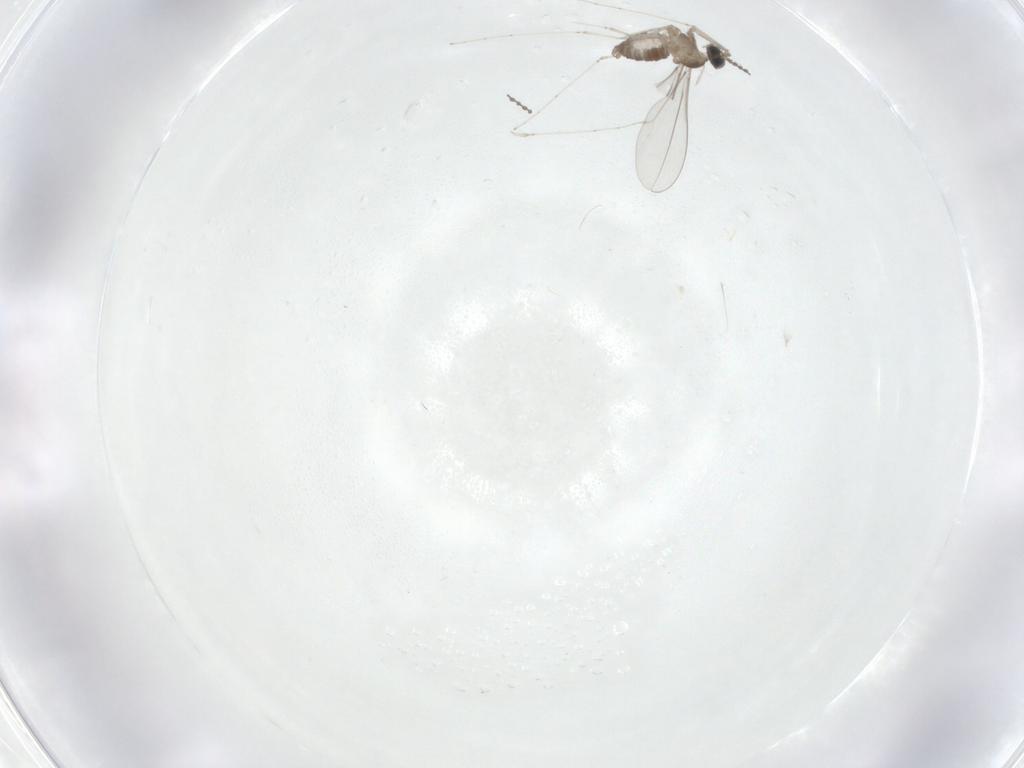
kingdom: Animalia
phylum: Arthropoda
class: Insecta
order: Diptera
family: Cecidomyiidae
